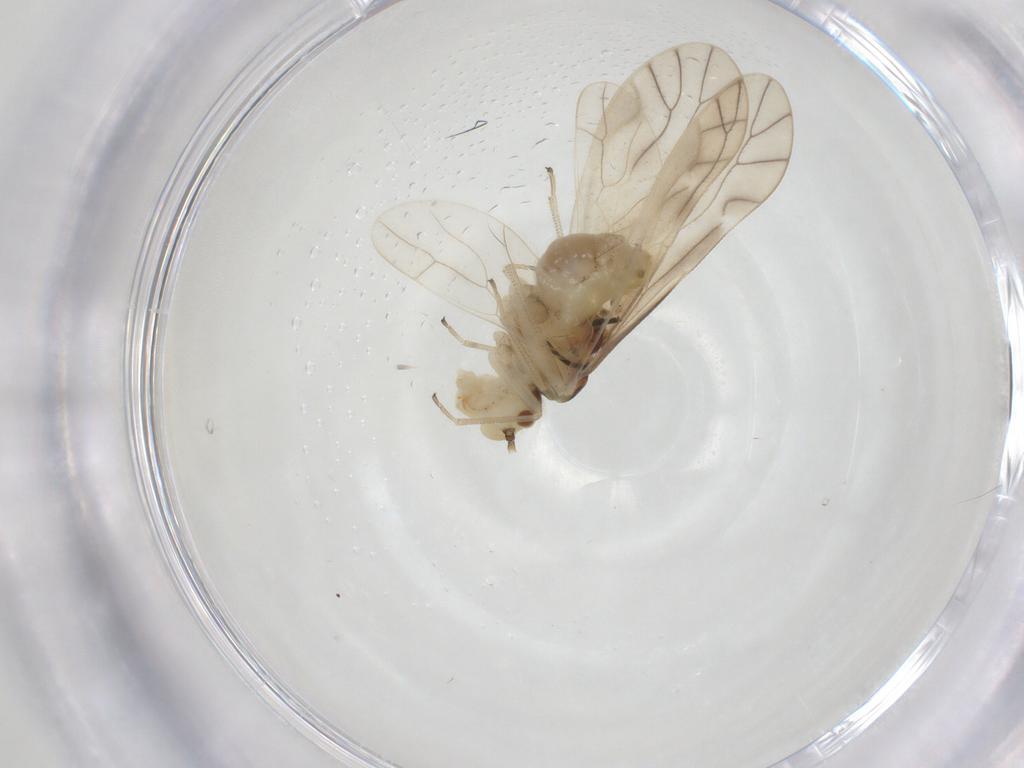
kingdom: Animalia
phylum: Arthropoda
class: Insecta
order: Psocodea
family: Caeciliusidae
